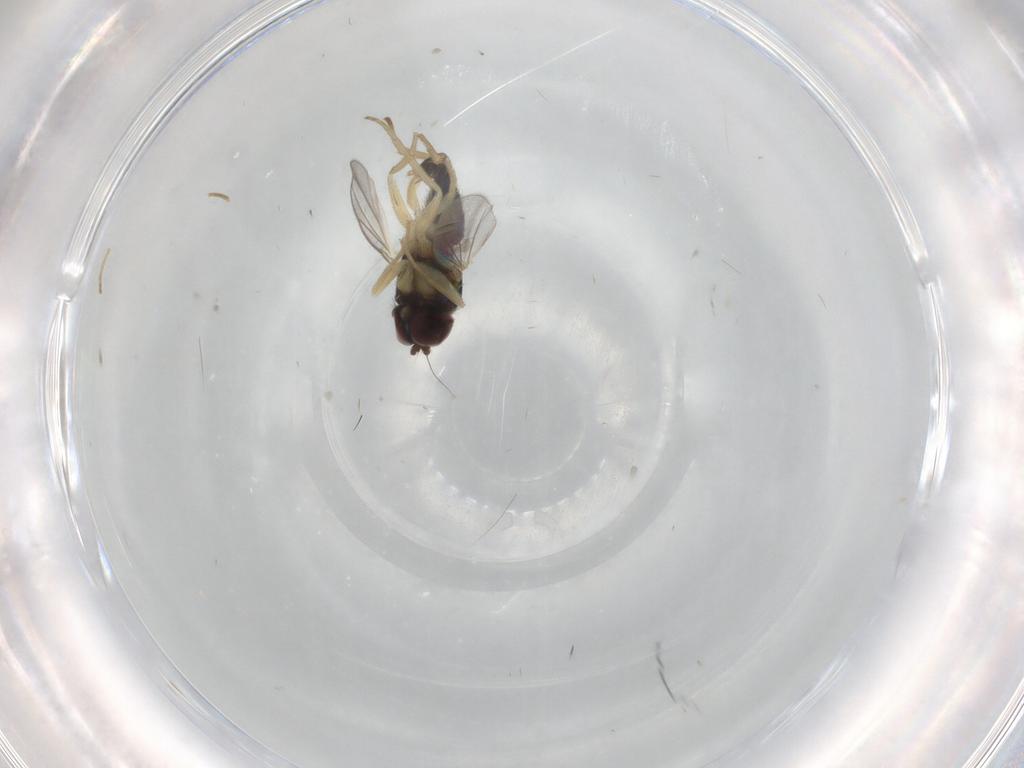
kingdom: Animalia
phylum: Arthropoda
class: Insecta
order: Diptera
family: Dolichopodidae
